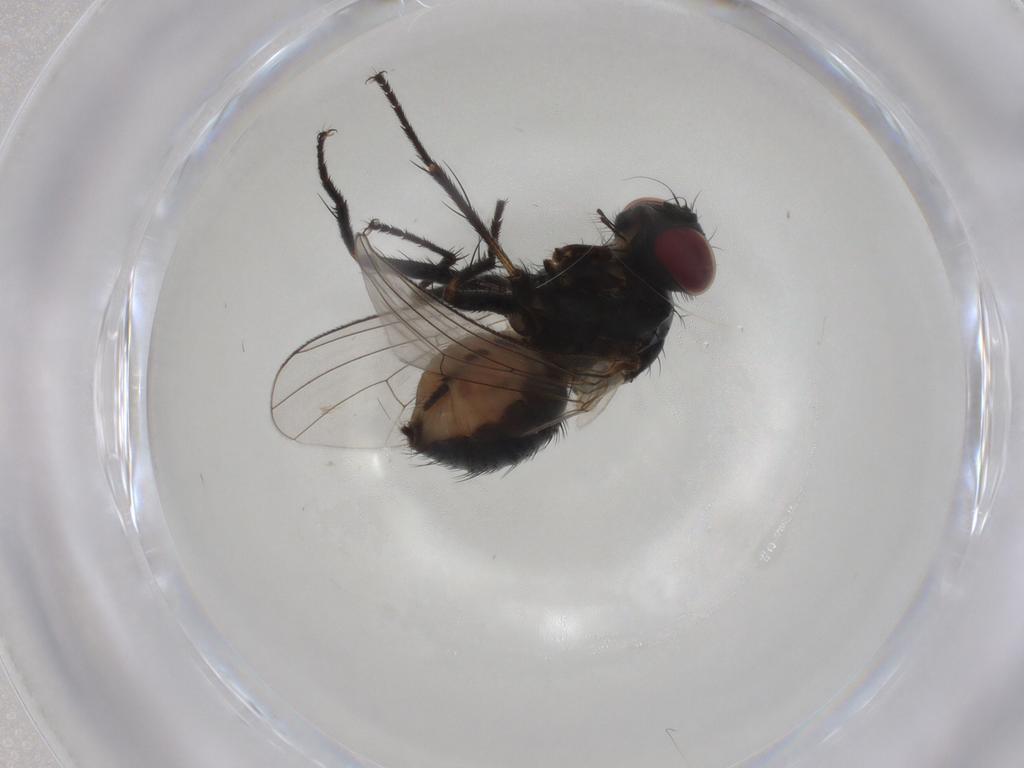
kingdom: Animalia
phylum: Arthropoda
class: Insecta
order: Diptera
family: Muscidae
